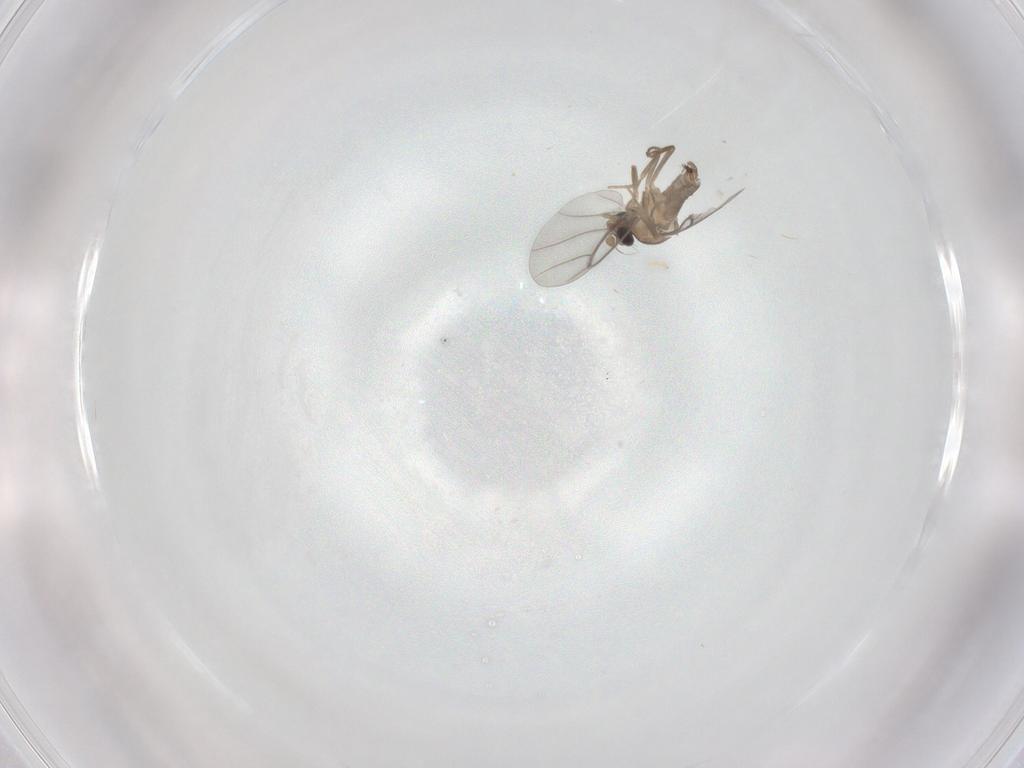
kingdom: Animalia
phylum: Arthropoda
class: Insecta
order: Diptera
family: Sciaridae
